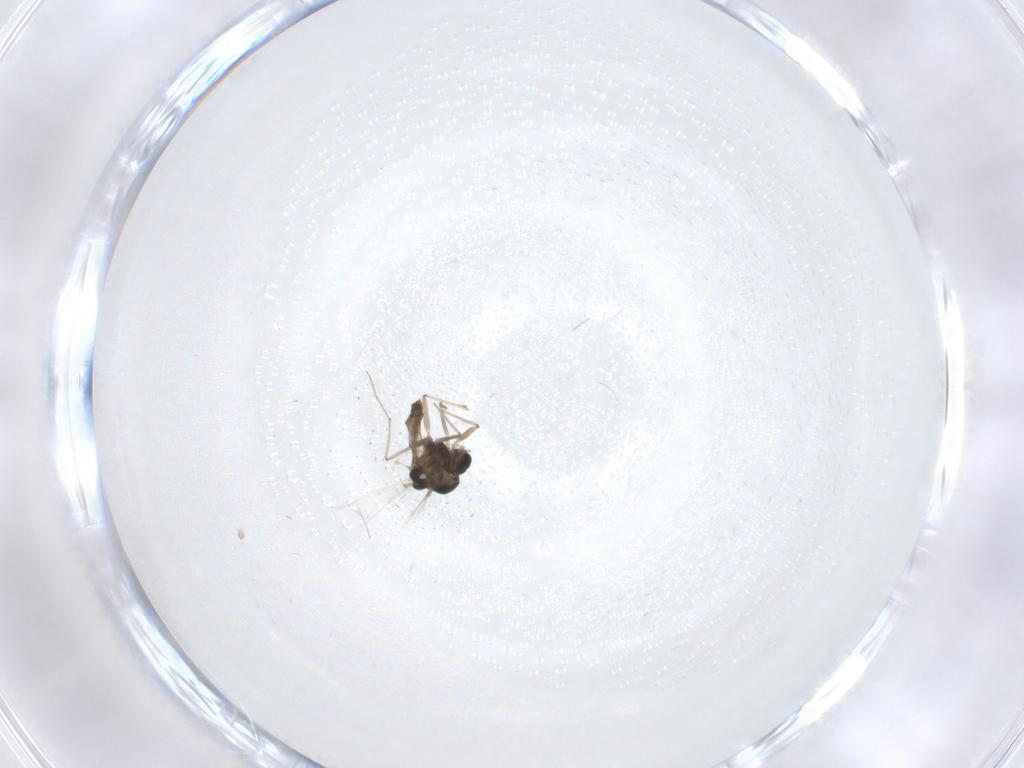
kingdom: Animalia
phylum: Arthropoda
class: Insecta
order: Diptera
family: Chironomidae
